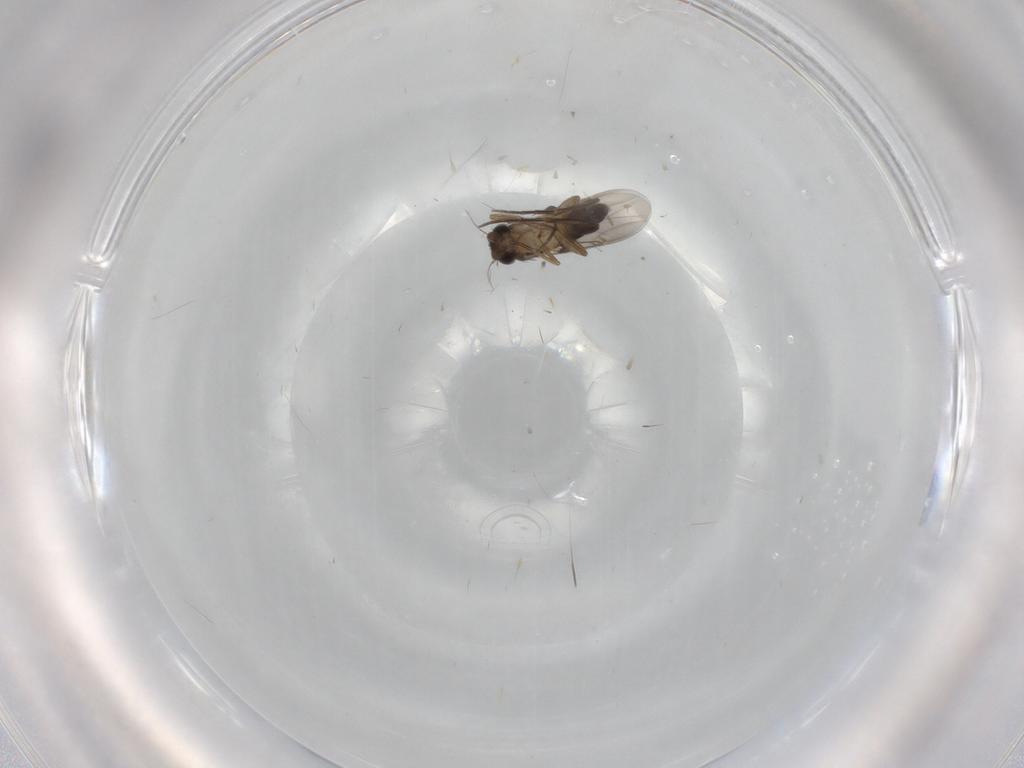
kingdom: Animalia
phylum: Arthropoda
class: Insecta
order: Diptera
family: Phoridae
